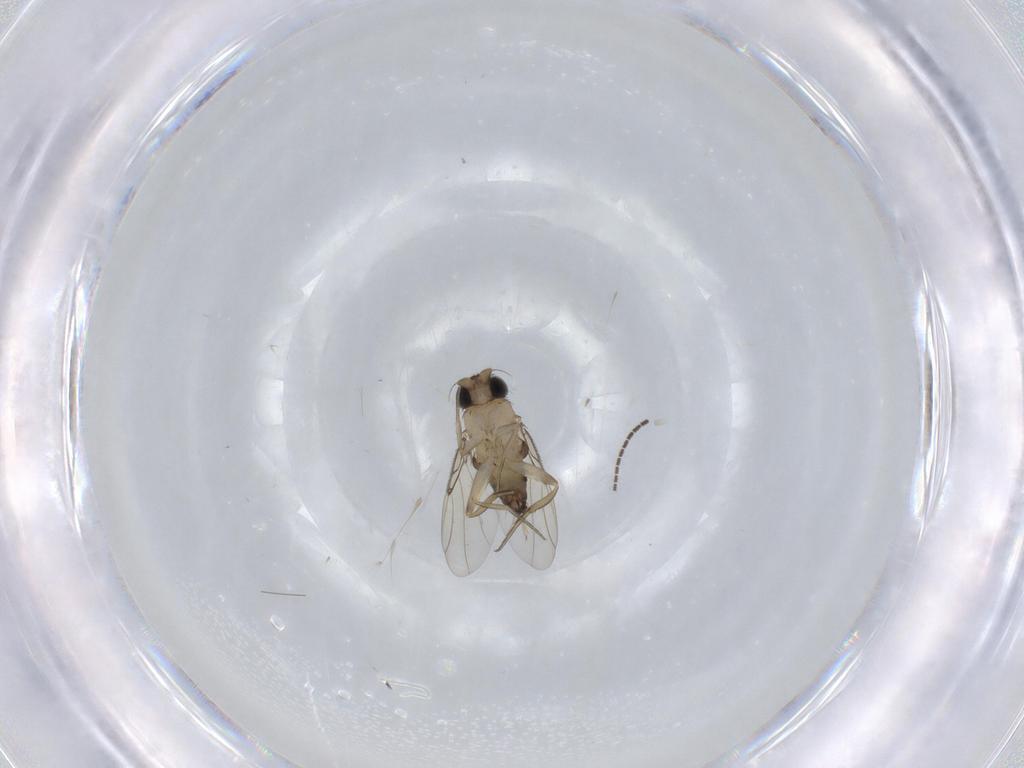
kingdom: Animalia
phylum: Arthropoda
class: Insecta
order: Diptera
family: Phoridae
